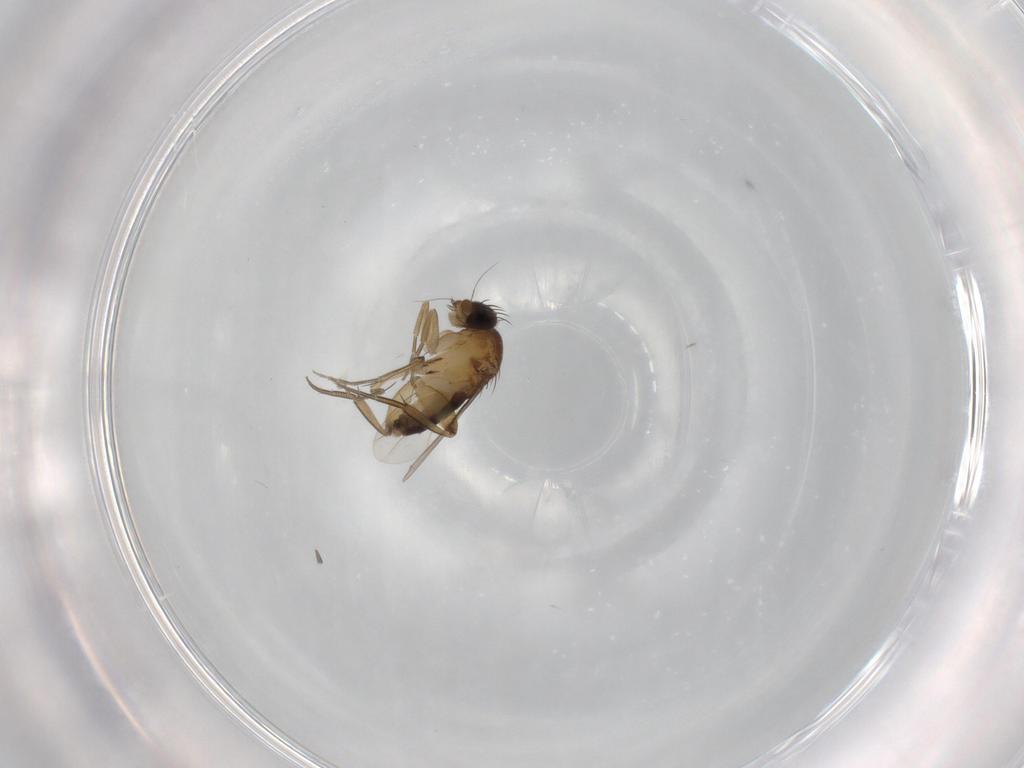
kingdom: Animalia
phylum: Arthropoda
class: Insecta
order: Diptera
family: Phoridae
